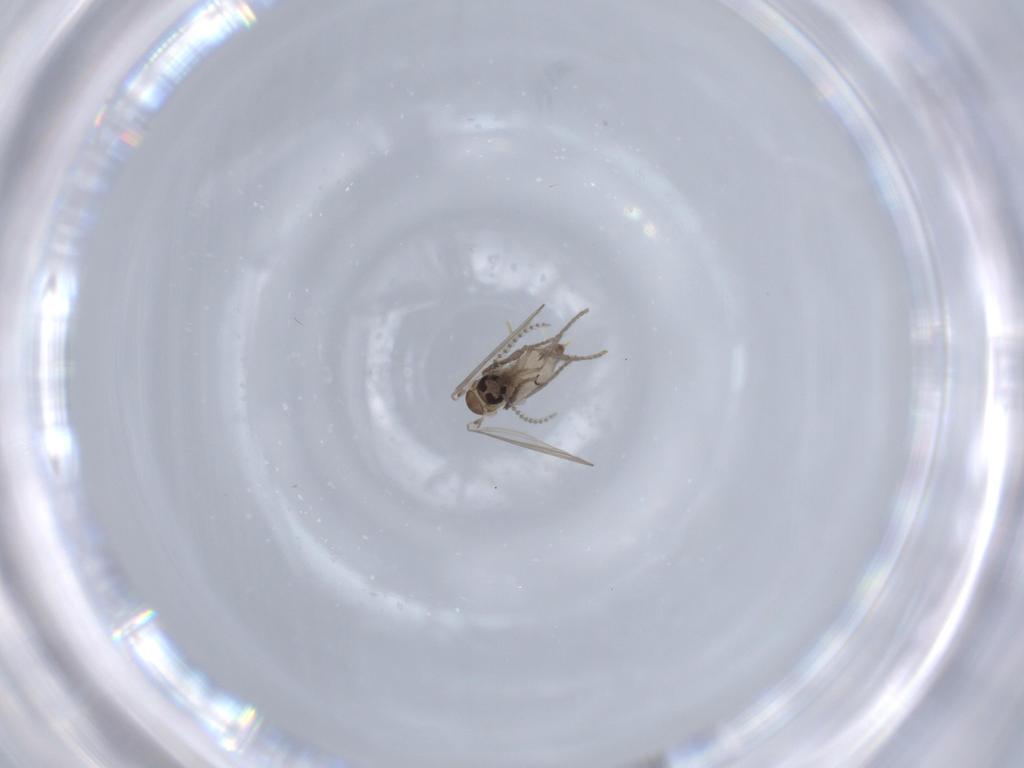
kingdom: Animalia
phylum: Arthropoda
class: Insecta
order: Diptera
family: Psychodidae
